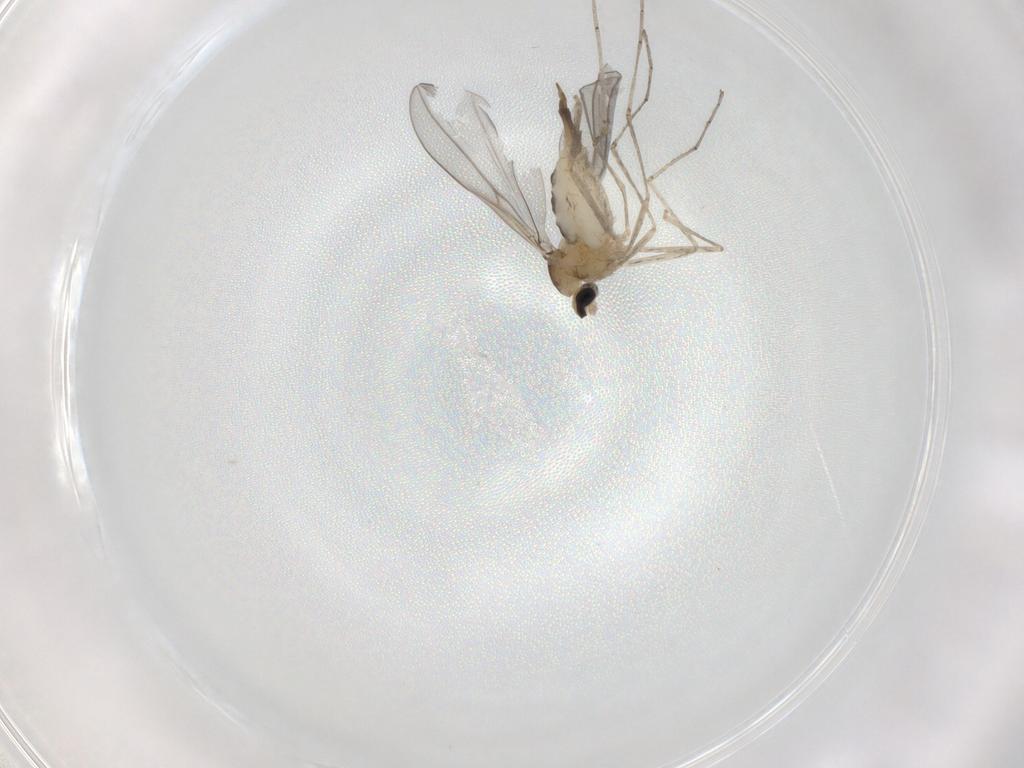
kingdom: Animalia
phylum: Arthropoda
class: Insecta
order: Diptera
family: Cecidomyiidae
